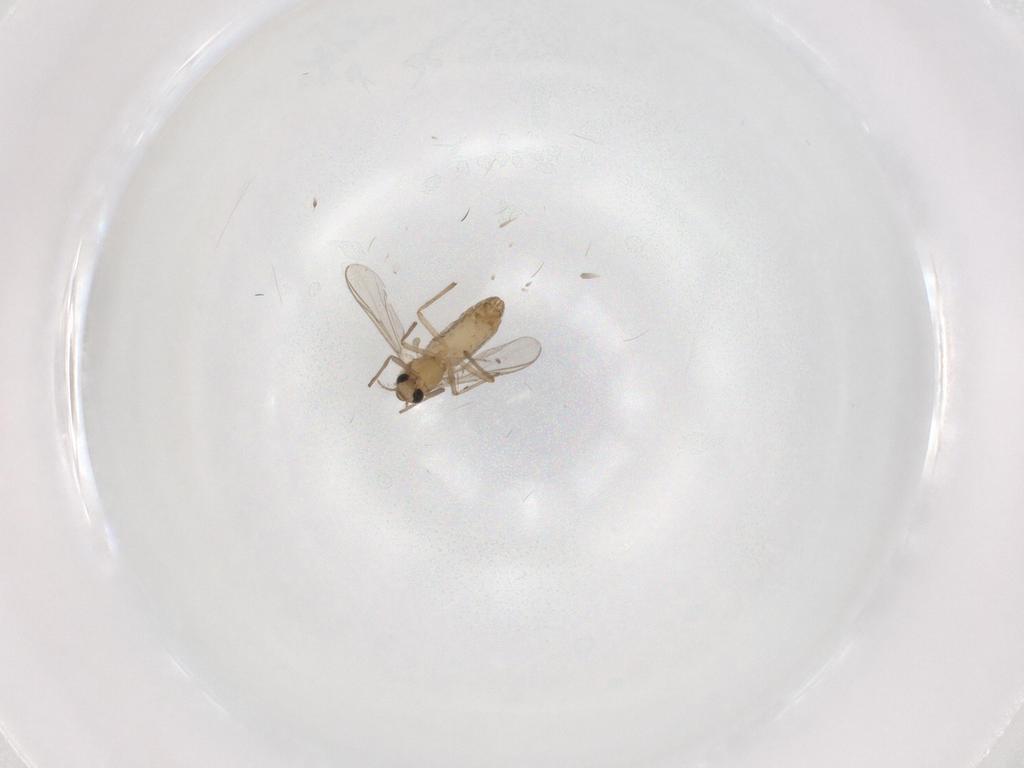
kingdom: Animalia
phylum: Arthropoda
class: Insecta
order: Diptera
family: Chironomidae
